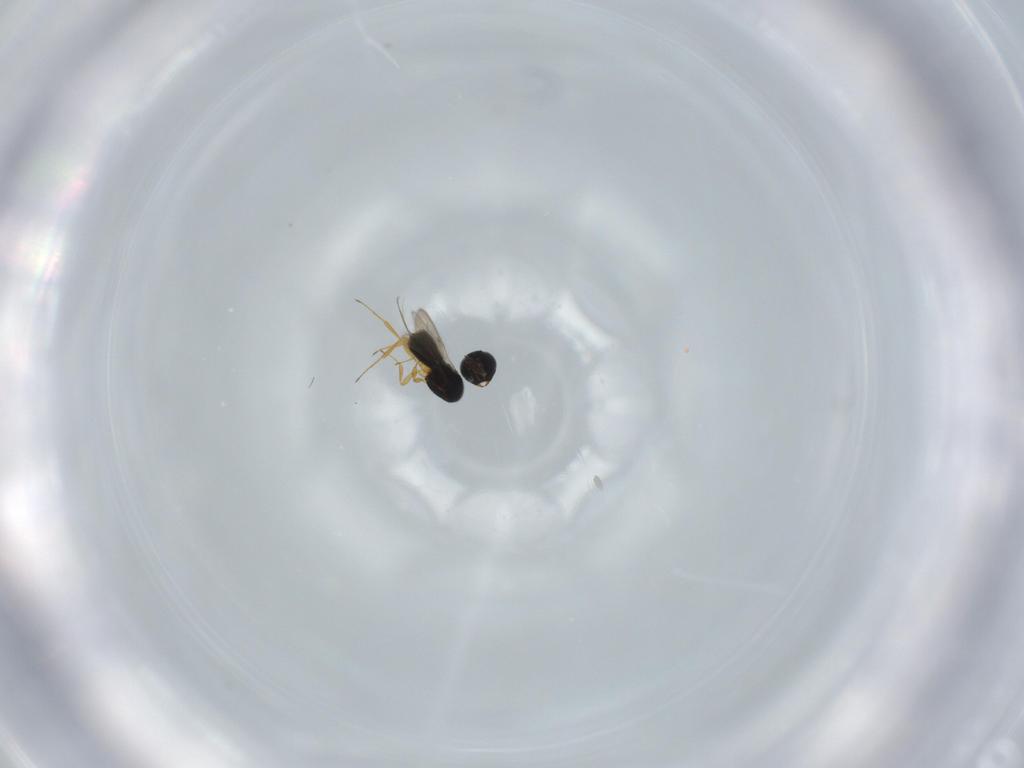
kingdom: Animalia
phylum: Arthropoda
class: Insecta
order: Hymenoptera
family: Scelionidae
